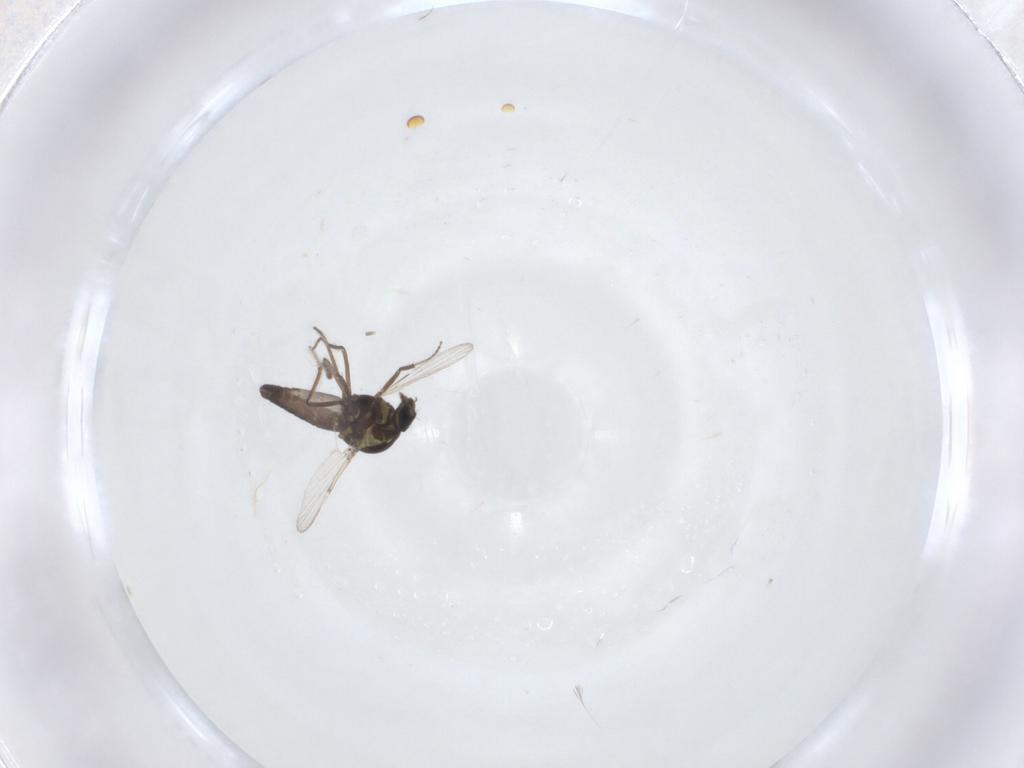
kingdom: Animalia
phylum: Arthropoda
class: Insecta
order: Diptera
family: Ceratopogonidae
